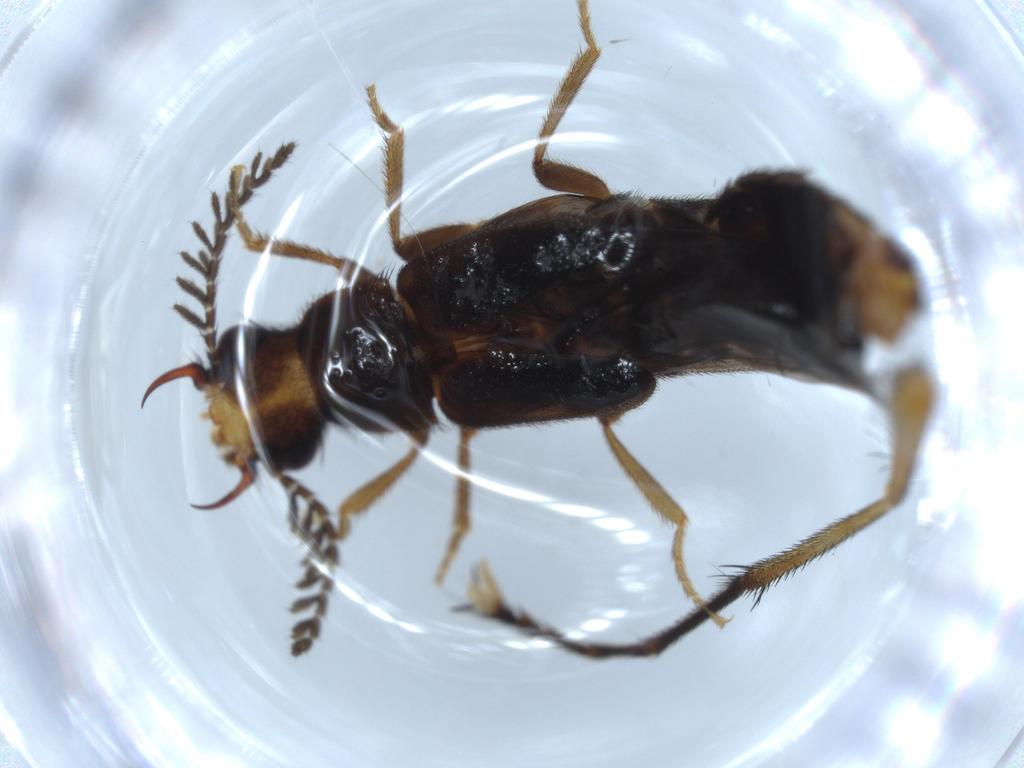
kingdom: Animalia
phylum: Arthropoda
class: Insecta
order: Coleoptera
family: Phengodidae
